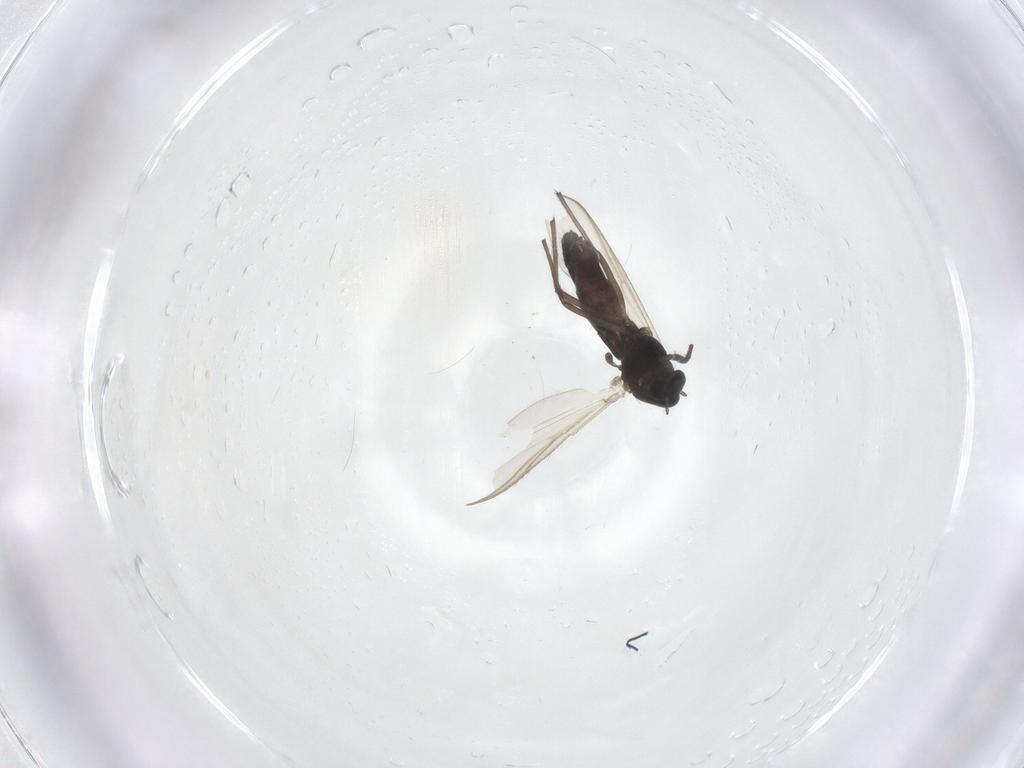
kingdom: Animalia
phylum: Arthropoda
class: Insecta
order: Diptera
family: Chironomidae
